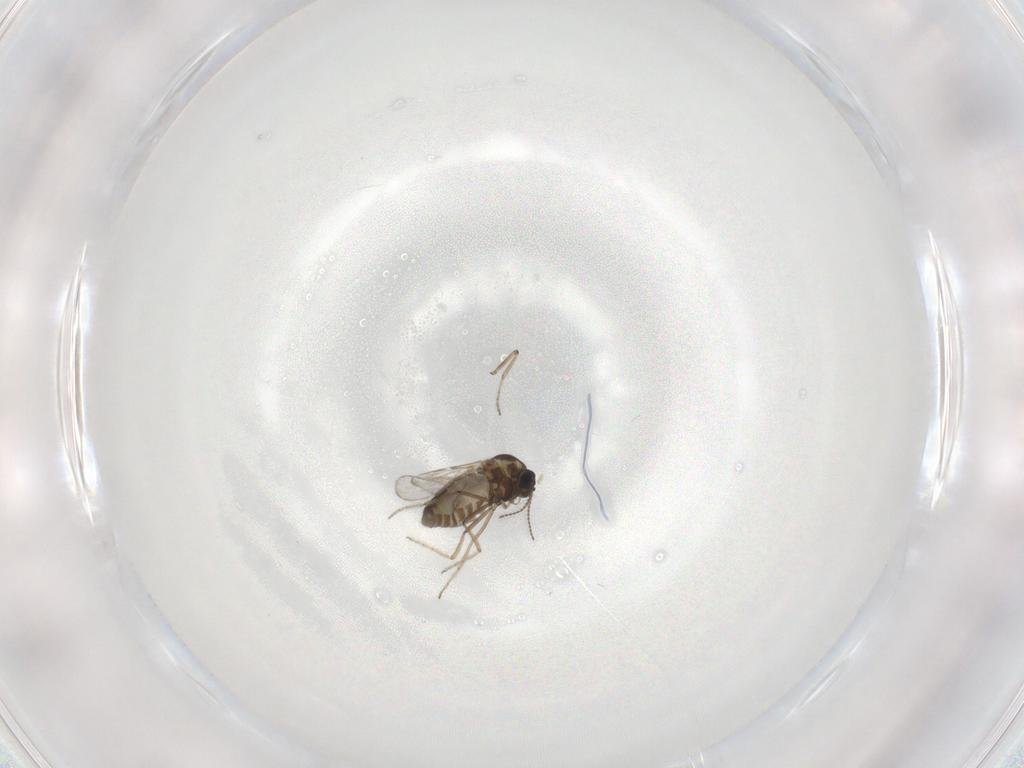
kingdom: Animalia
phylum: Arthropoda
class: Insecta
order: Diptera
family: Ceratopogonidae
